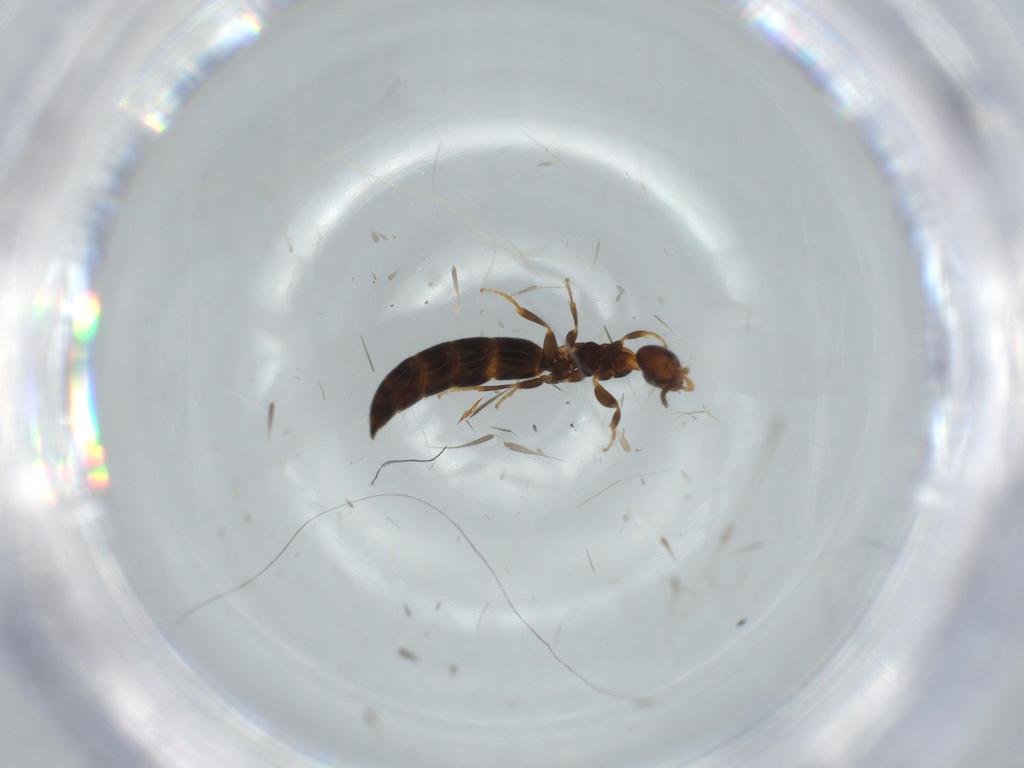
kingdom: Animalia
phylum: Arthropoda
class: Insecta
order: Hymenoptera
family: Bethylidae
